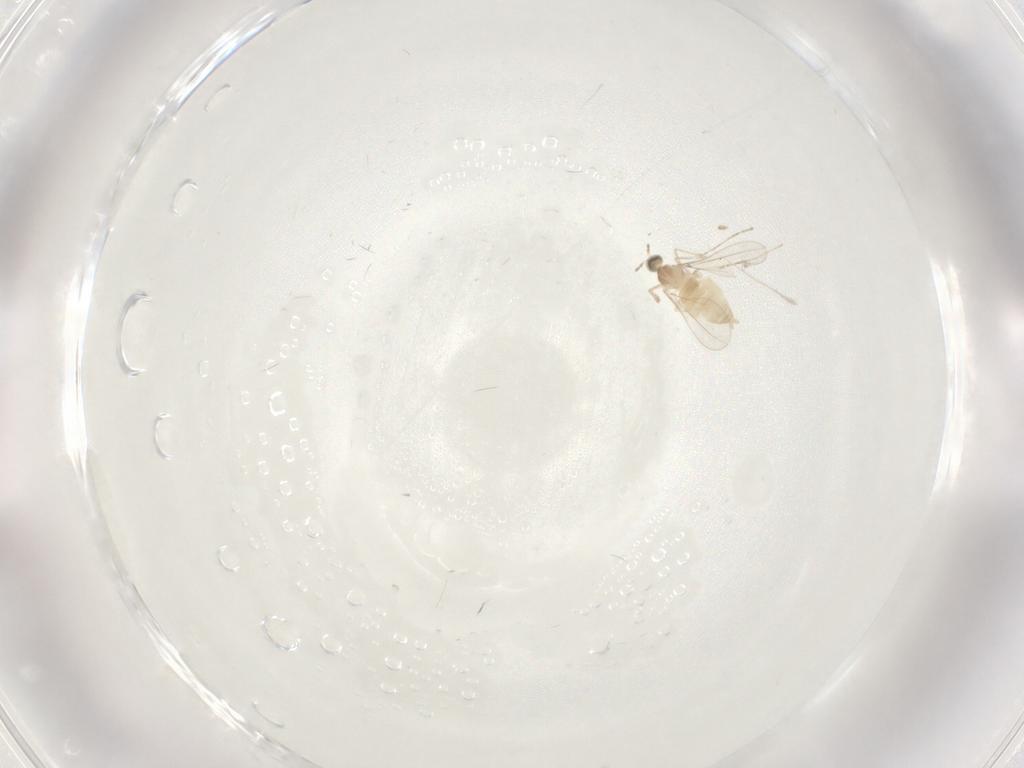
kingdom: Animalia
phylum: Arthropoda
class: Insecta
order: Diptera
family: Cecidomyiidae
